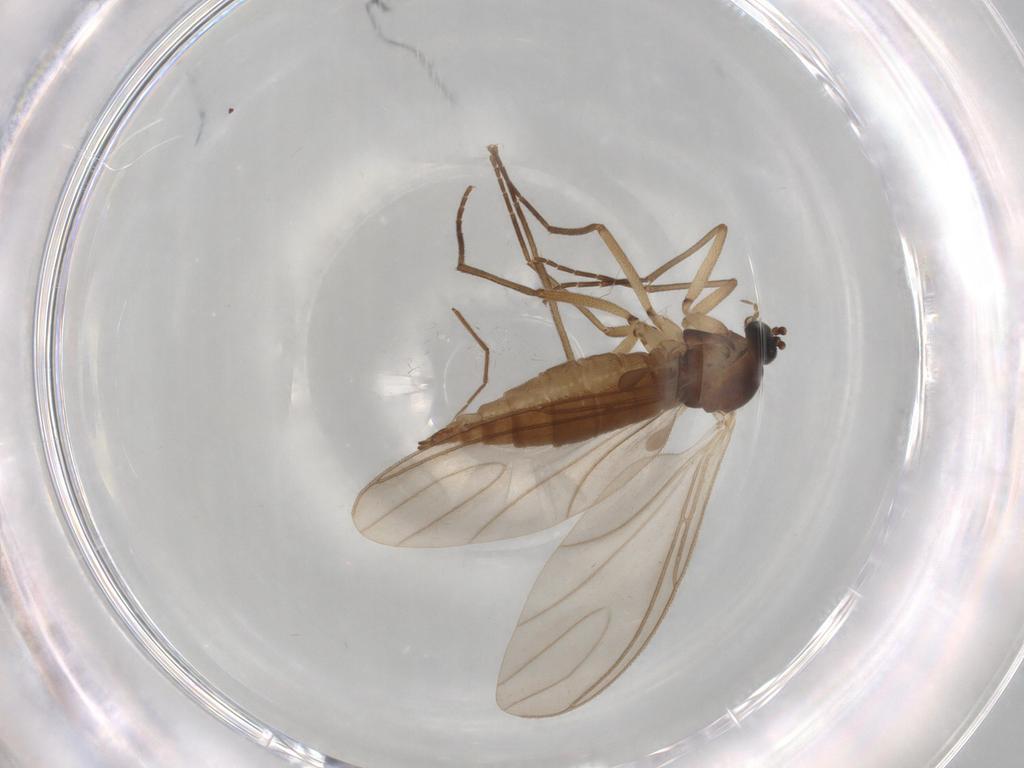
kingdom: Animalia
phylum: Arthropoda
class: Insecta
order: Diptera
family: Sciaridae
